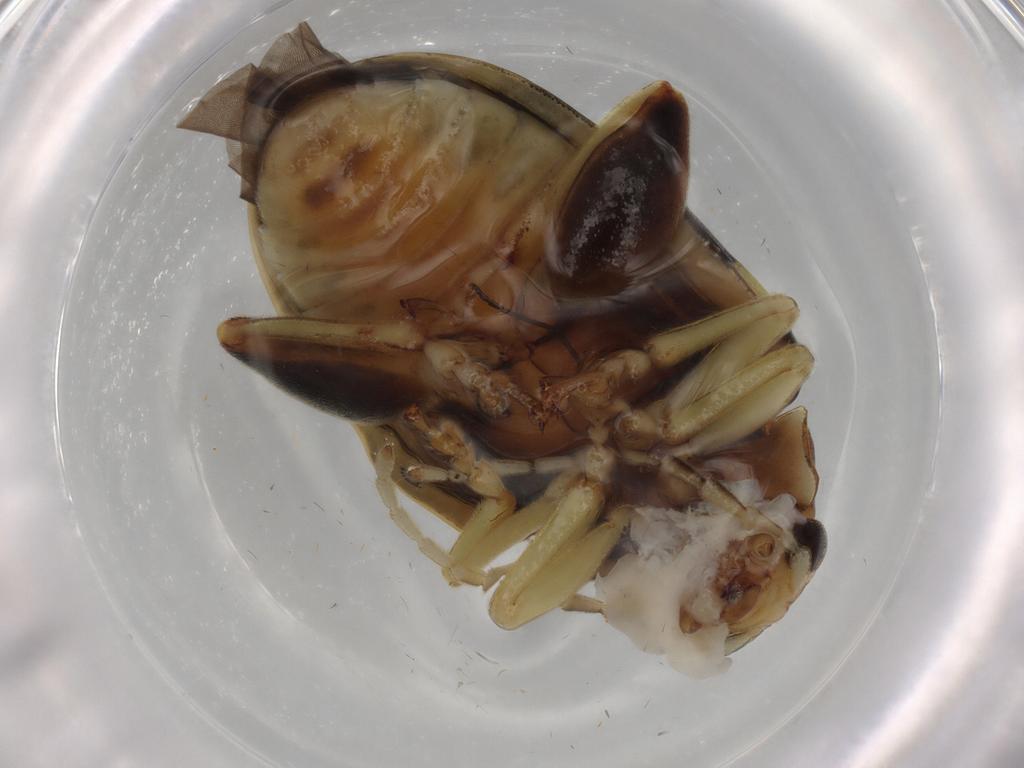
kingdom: Animalia
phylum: Arthropoda
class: Insecta
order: Coleoptera
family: Chrysomelidae
